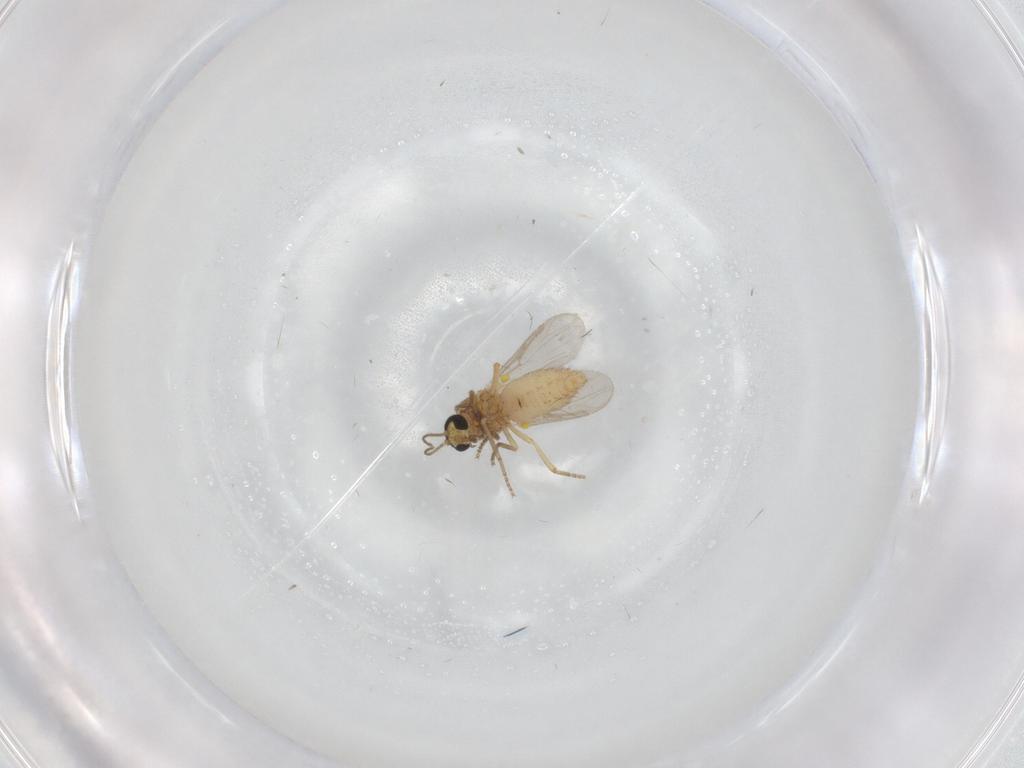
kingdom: Animalia
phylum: Arthropoda
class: Insecta
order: Diptera
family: Ceratopogonidae
